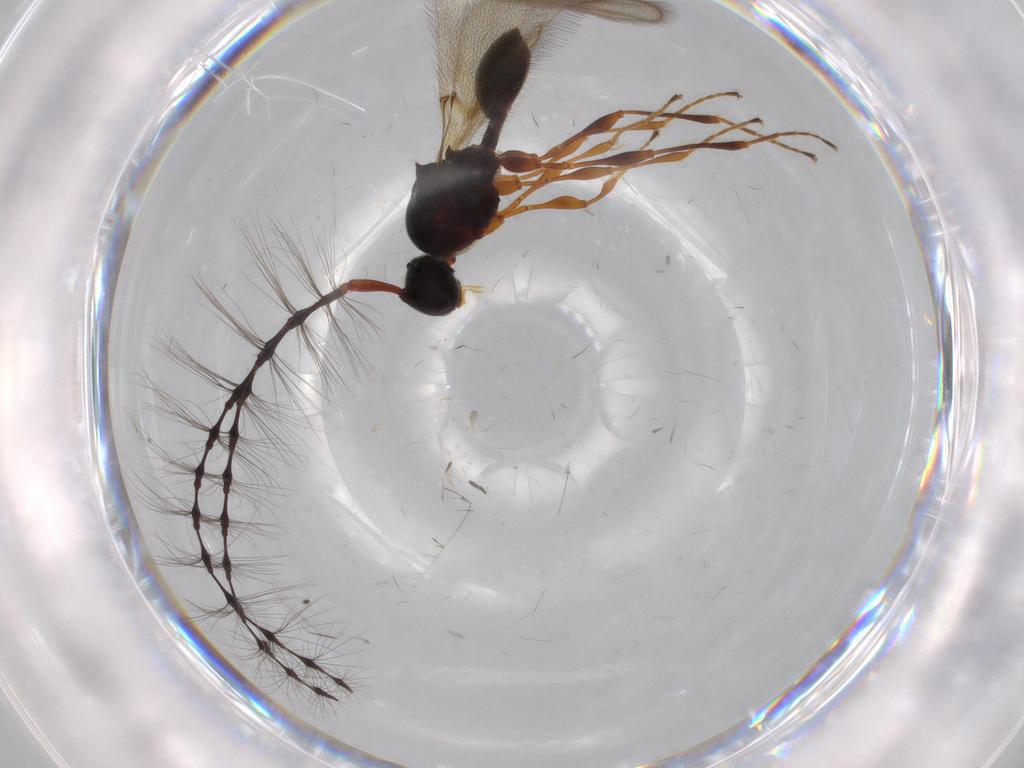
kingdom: Animalia
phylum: Arthropoda
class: Insecta
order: Hymenoptera
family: Diapriidae
